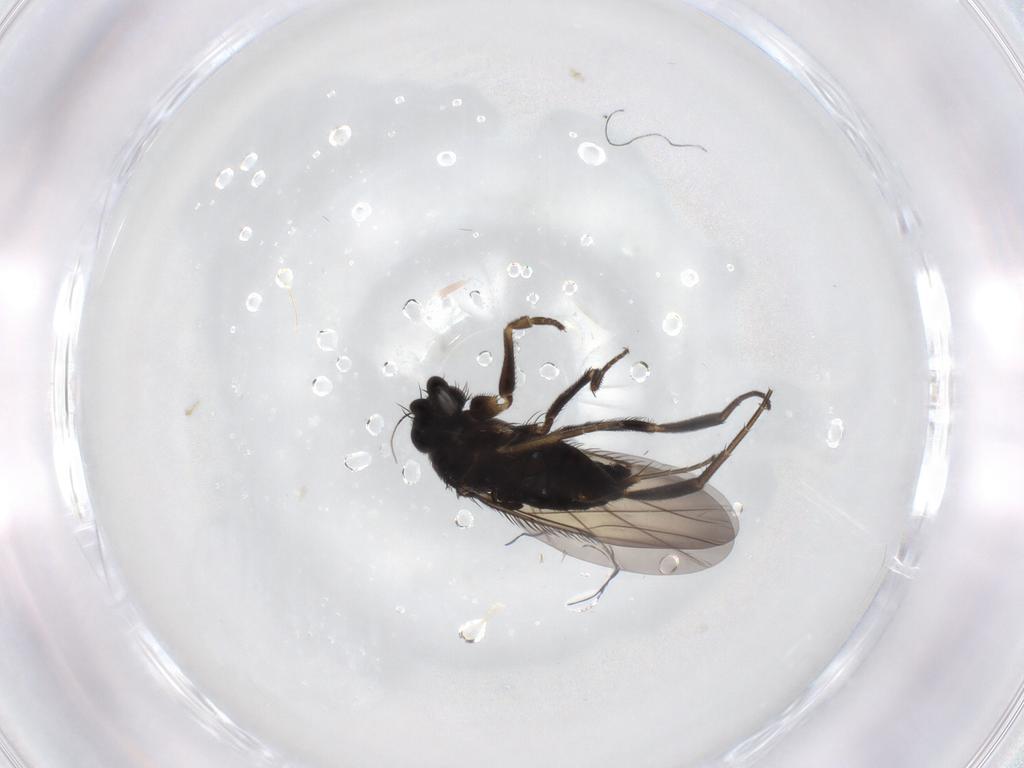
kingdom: Animalia
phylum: Arthropoda
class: Insecta
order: Diptera
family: Phoridae
